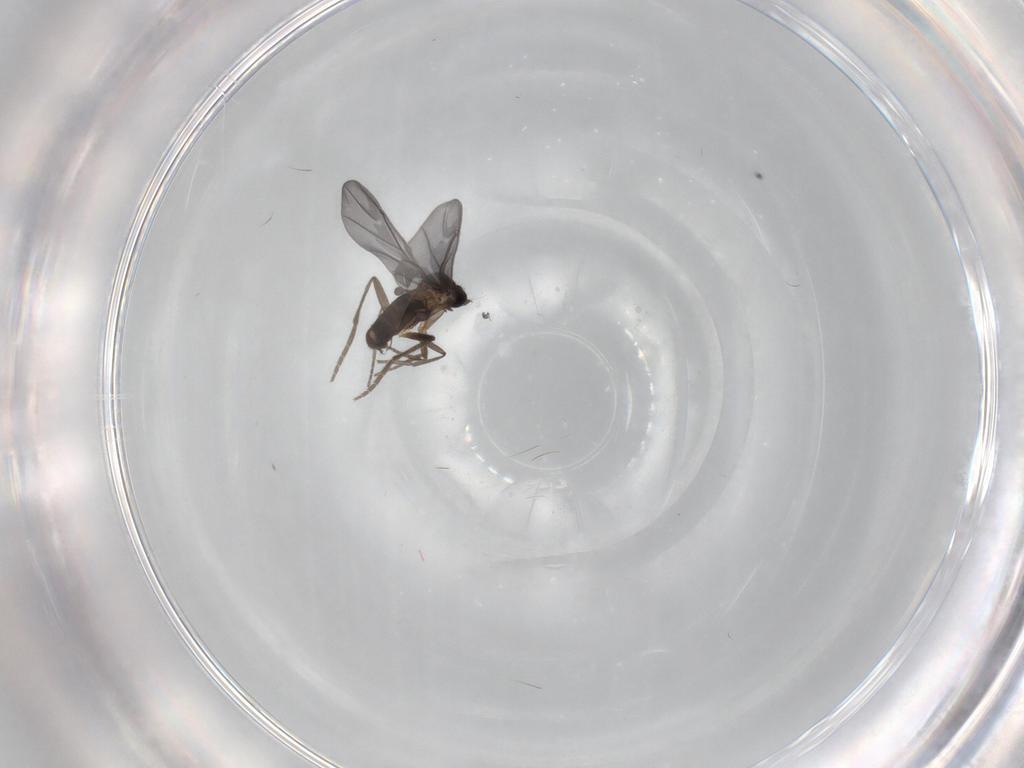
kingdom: Animalia
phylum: Arthropoda
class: Insecta
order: Diptera
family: Phoridae
